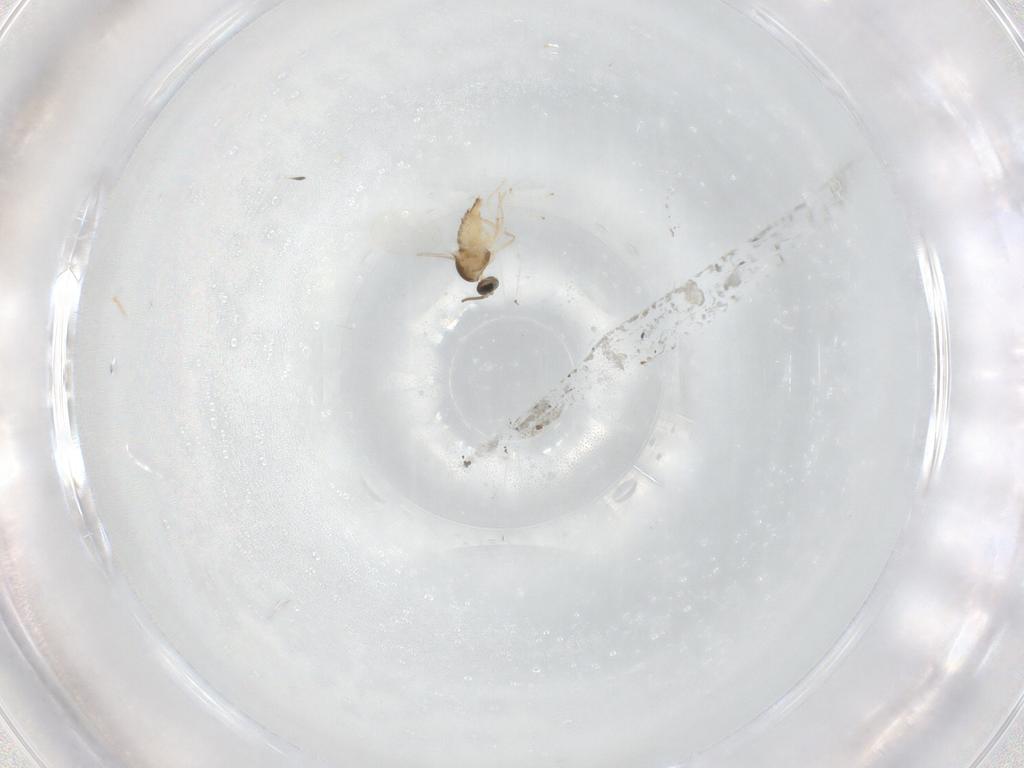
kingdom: Animalia
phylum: Arthropoda
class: Insecta
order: Diptera
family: Cecidomyiidae
